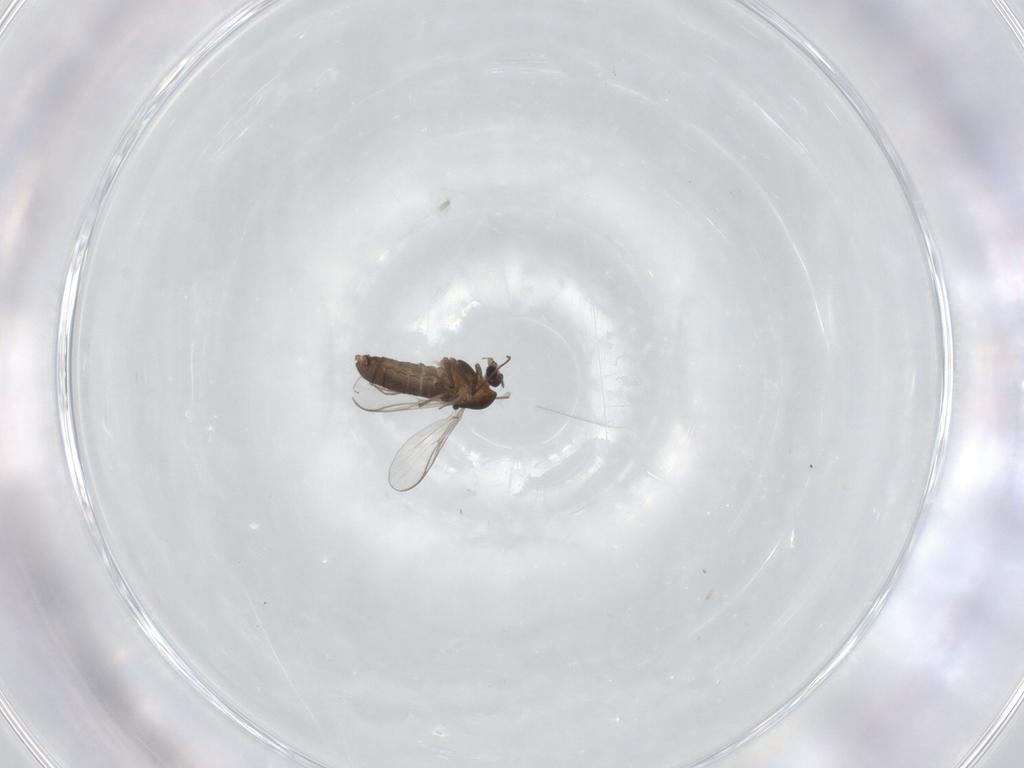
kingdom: Animalia
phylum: Arthropoda
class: Insecta
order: Diptera
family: Chironomidae
